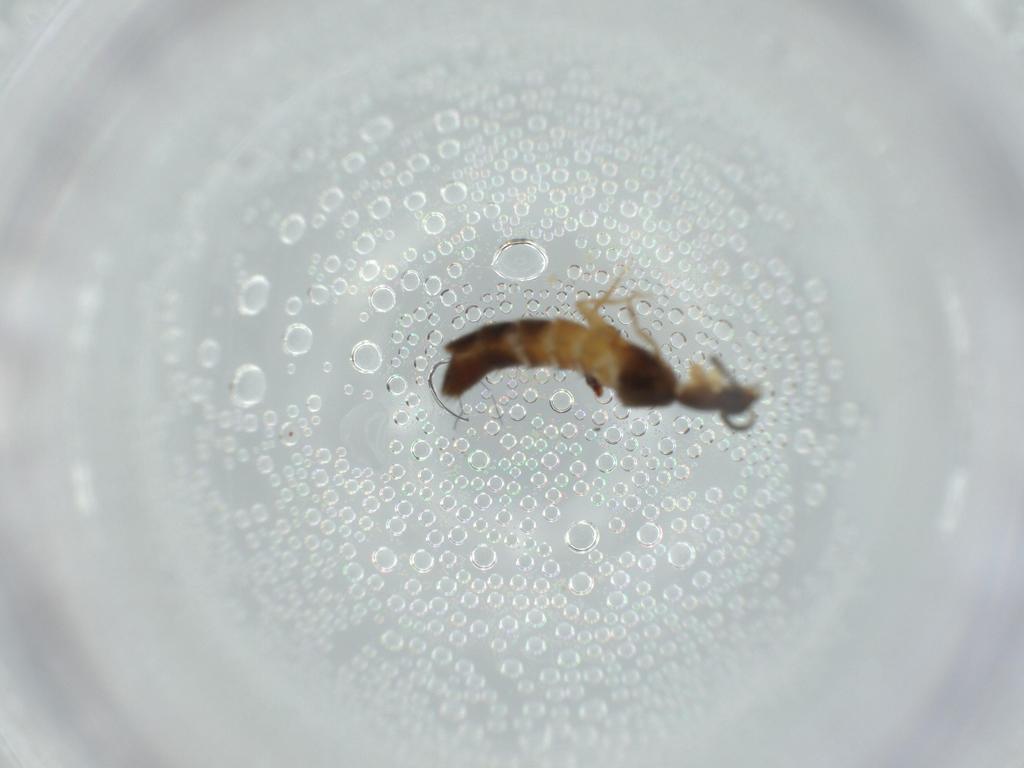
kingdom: Animalia
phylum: Arthropoda
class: Insecta
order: Coleoptera
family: Staphylinidae
